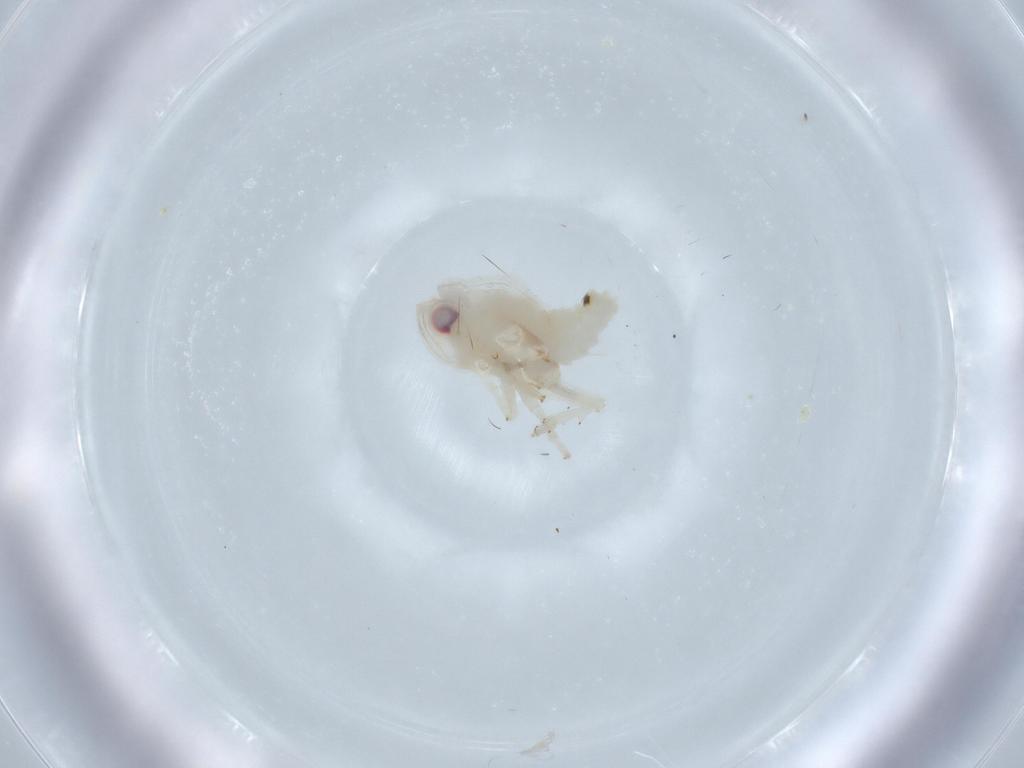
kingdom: Animalia
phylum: Arthropoda
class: Insecta
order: Hemiptera
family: Nogodinidae
